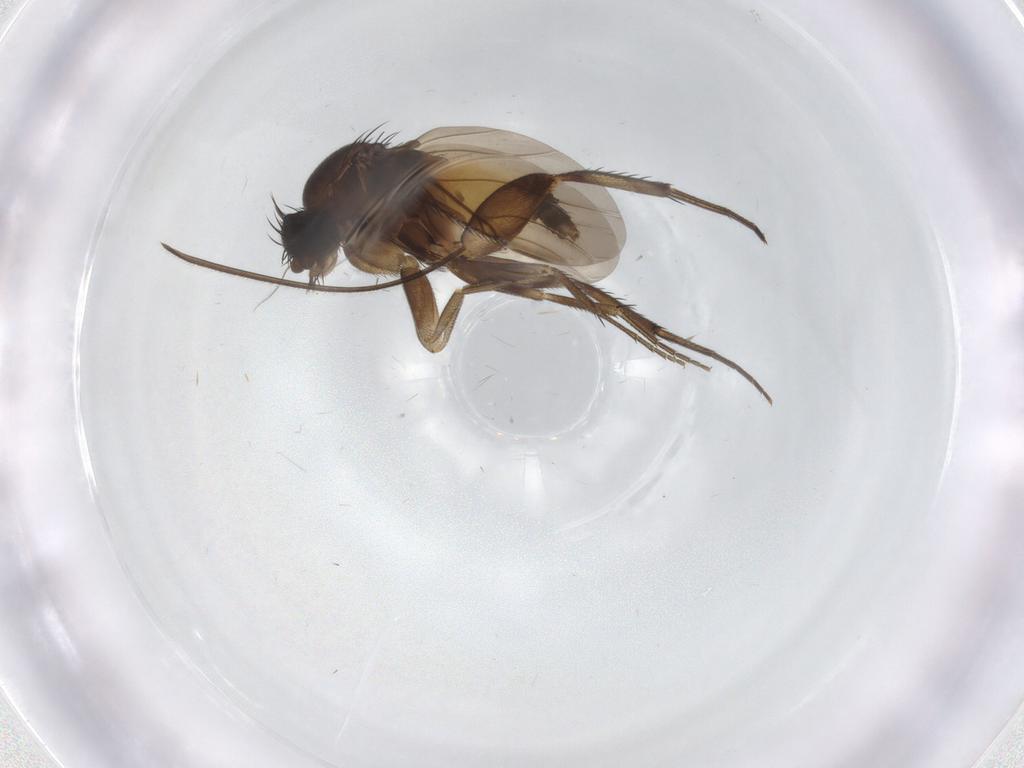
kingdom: Animalia
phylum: Arthropoda
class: Insecta
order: Diptera
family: Phoridae
